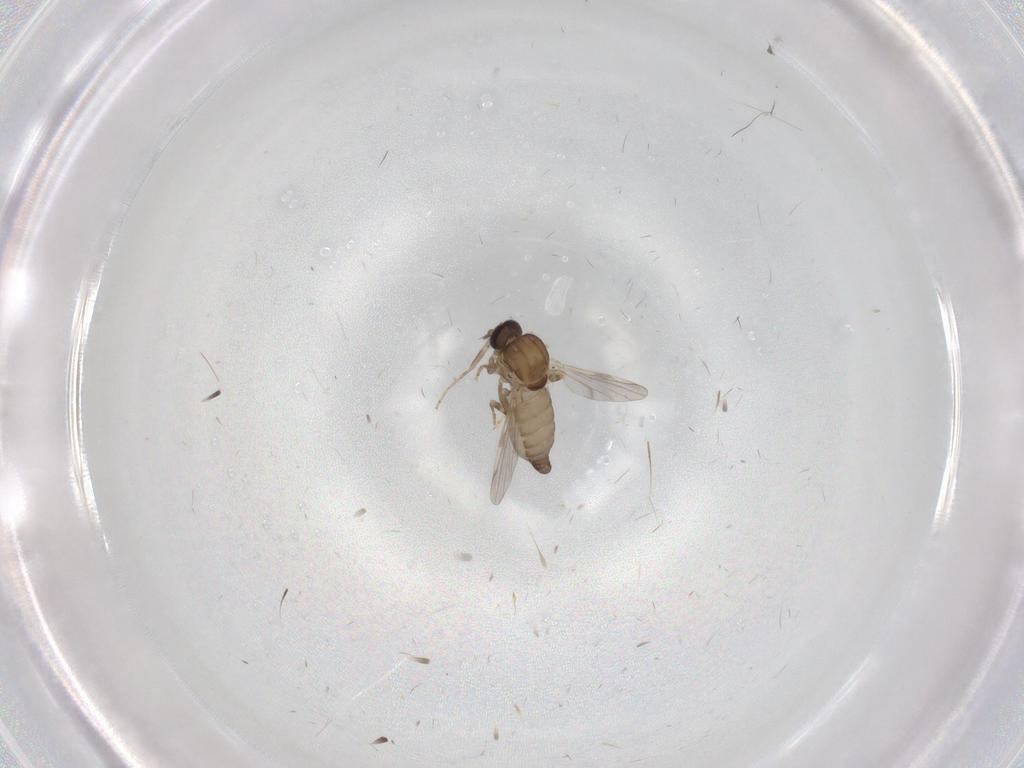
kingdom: Animalia
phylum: Arthropoda
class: Insecta
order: Diptera
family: Ceratopogonidae
